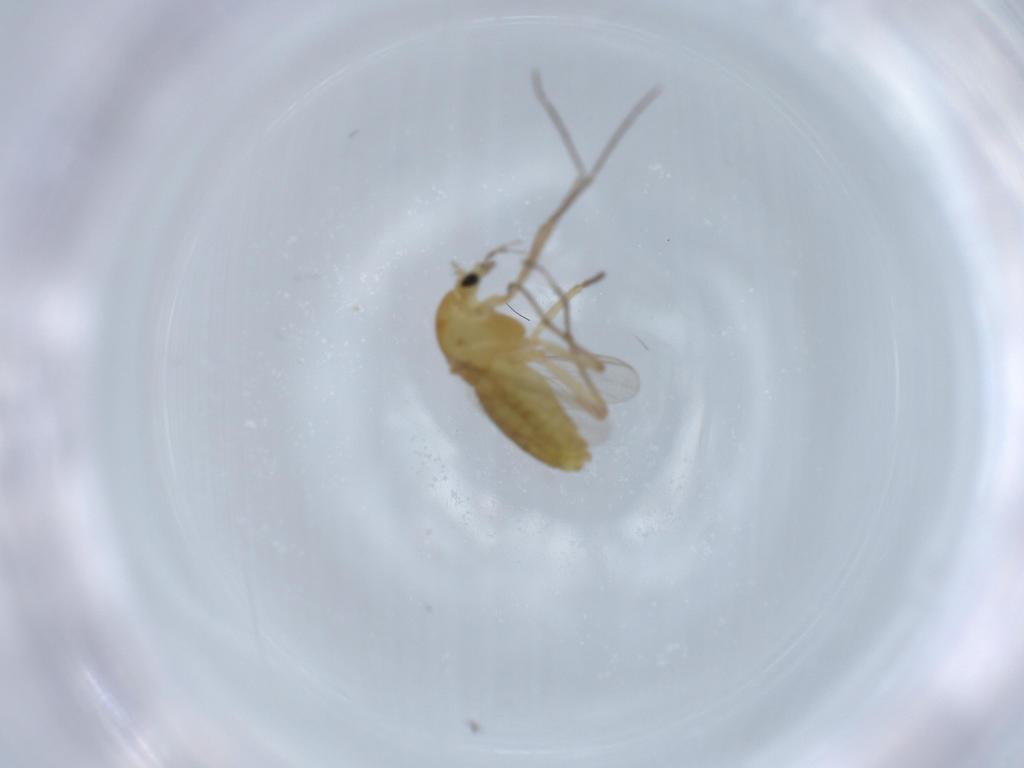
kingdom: Animalia
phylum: Arthropoda
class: Insecta
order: Diptera
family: Chironomidae
